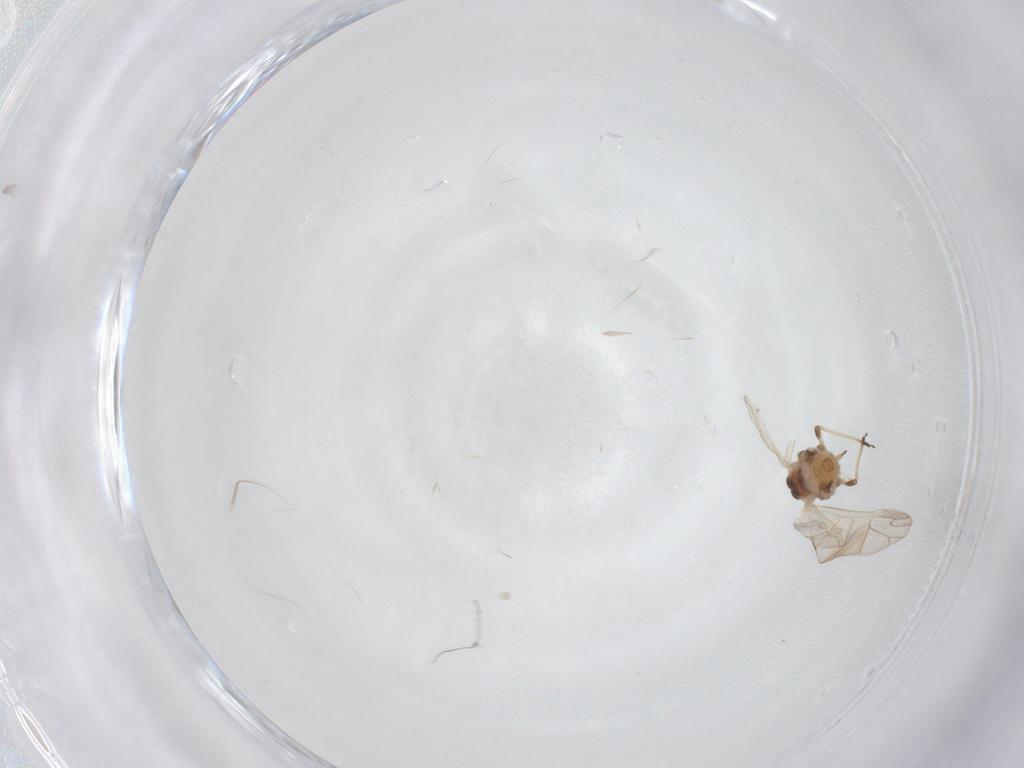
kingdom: Animalia
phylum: Arthropoda
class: Insecta
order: Hemiptera
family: Aphididae
